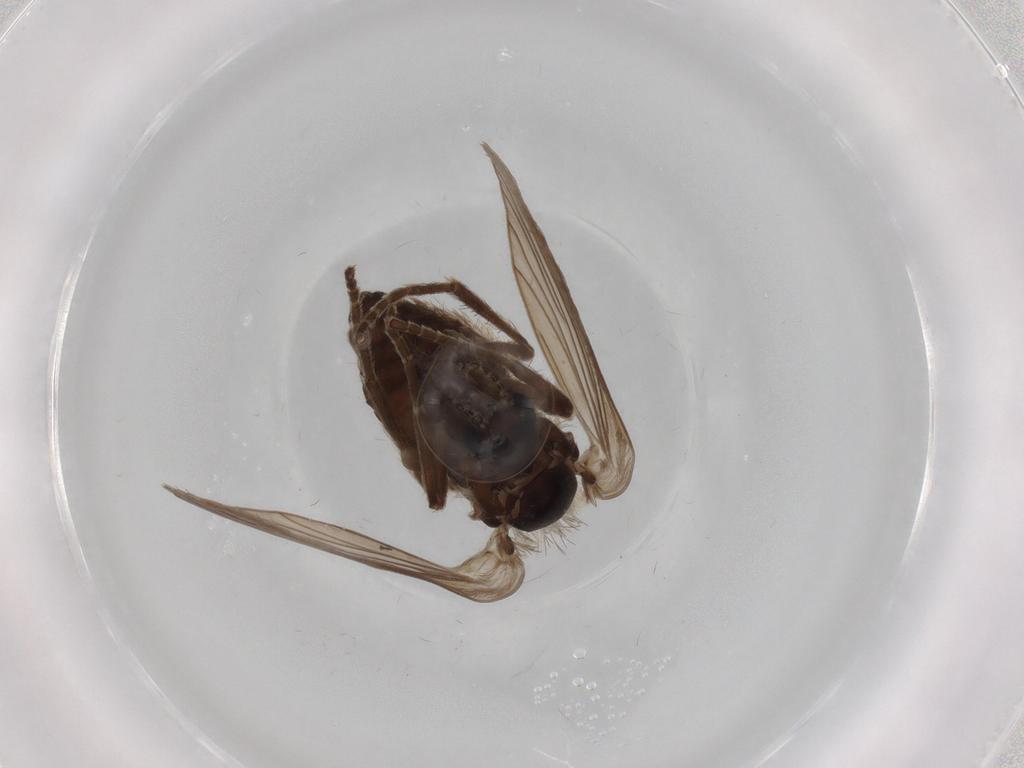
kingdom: Animalia
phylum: Arthropoda
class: Insecta
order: Diptera
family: Psychodidae
